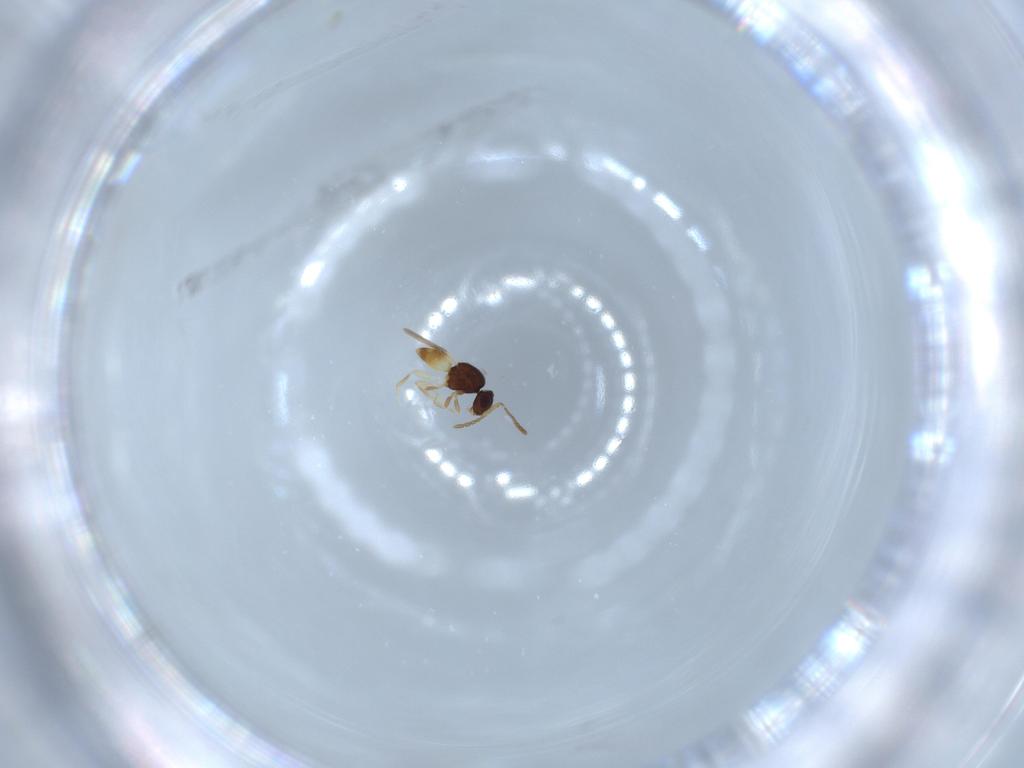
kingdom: Animalia
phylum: Arthropoda
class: Insecta
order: Hymenoptera
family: Ceraphronidae
